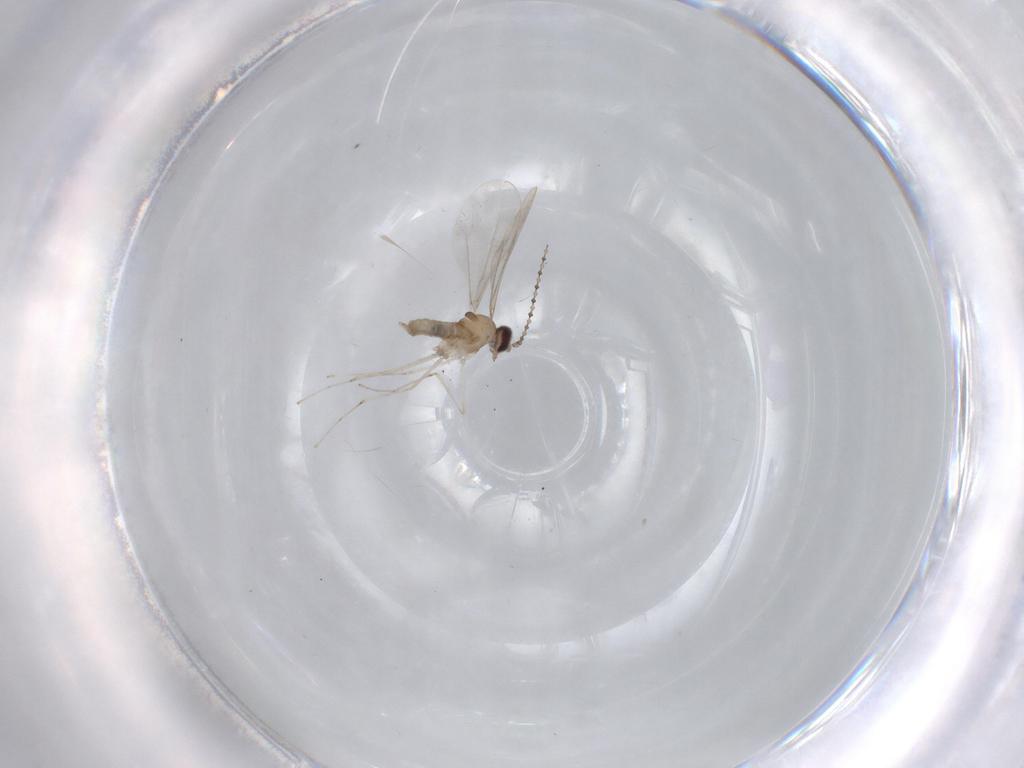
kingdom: Animalia
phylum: Arthropoda
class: Insecta
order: Diptera
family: Cecidomyiidae
